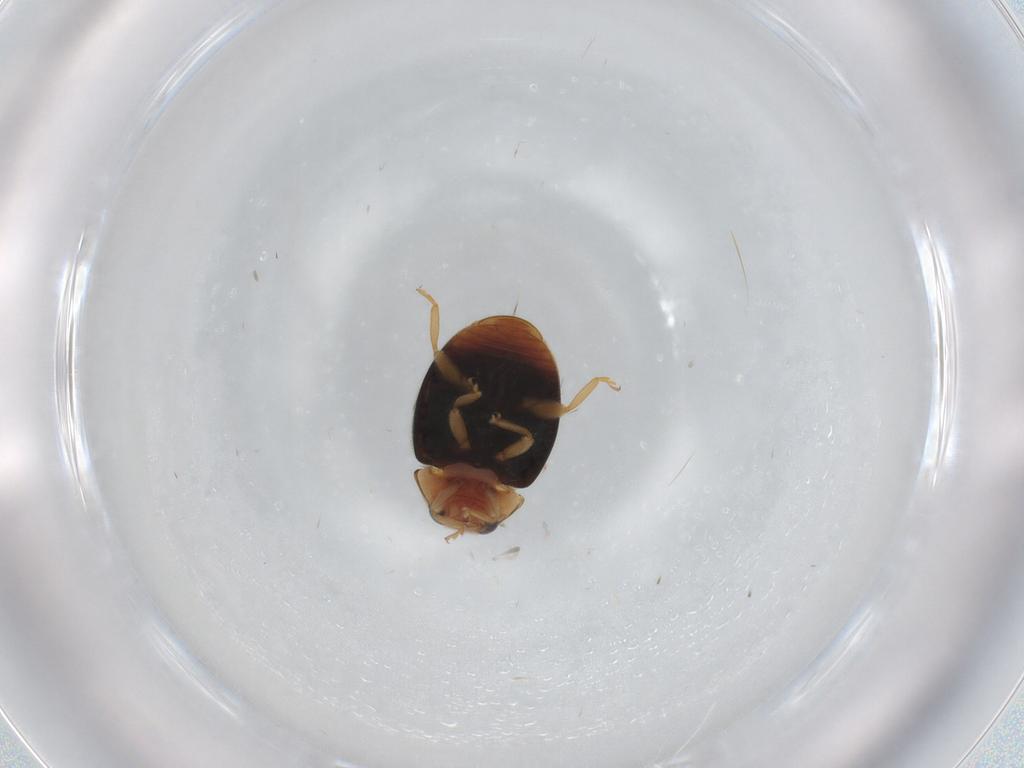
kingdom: Animalia
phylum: Arthropoda
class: Insecta
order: Coleoptera
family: Coccinellidae
